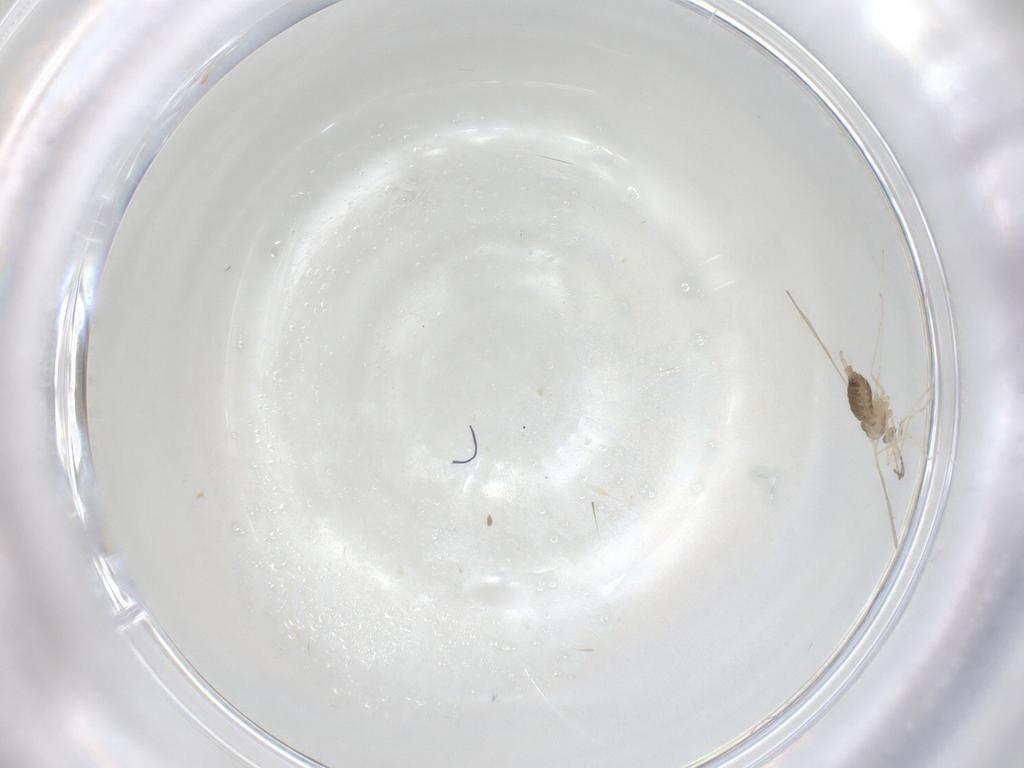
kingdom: Animalia
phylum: Arthropoda
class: Insecta
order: Diptera
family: Cecidomyiidae
